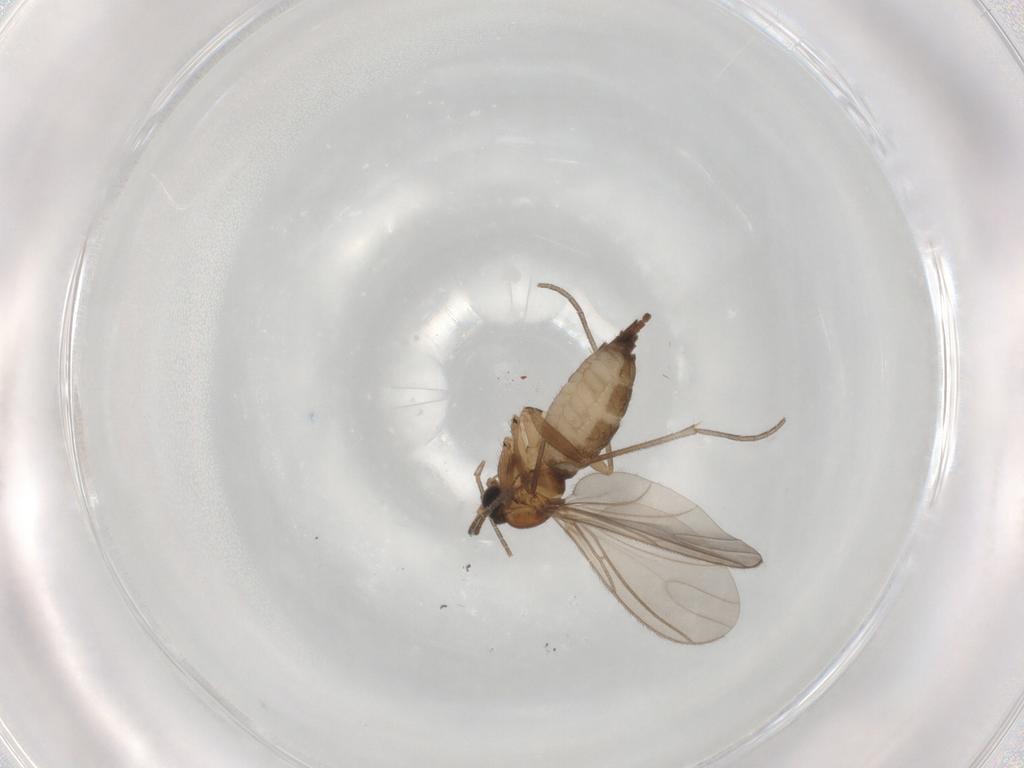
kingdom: Animalia
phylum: Arthropoda
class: Insecta
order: Diptera
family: Sciaridae
